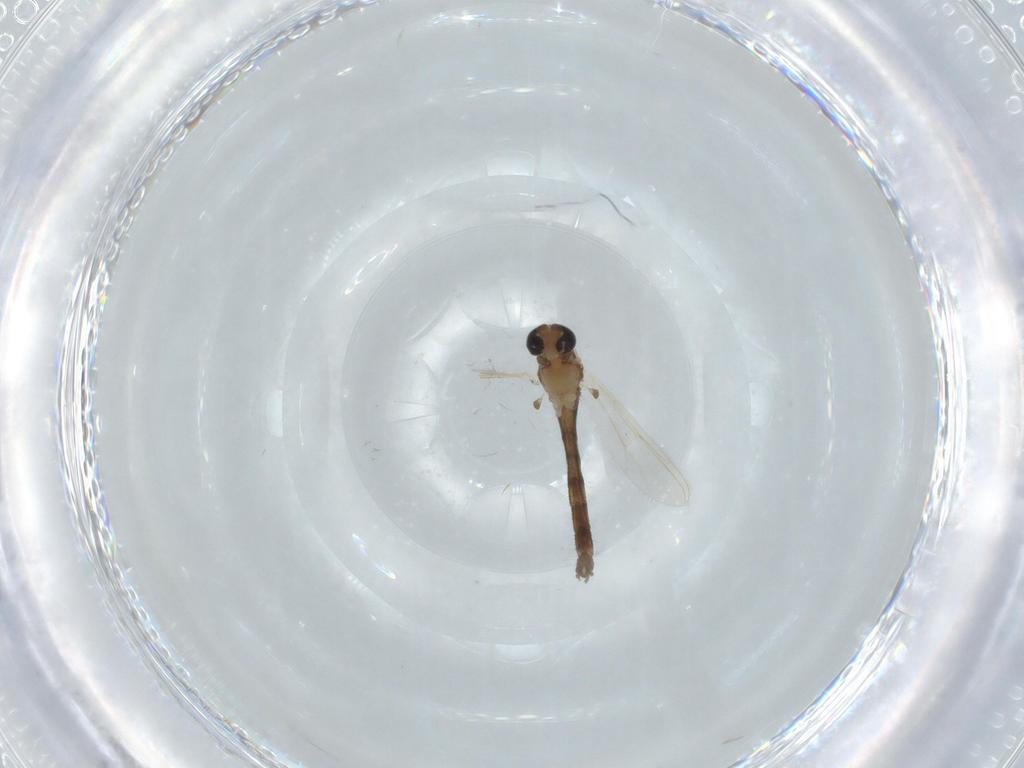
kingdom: Animalia
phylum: Arthropoda
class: Insecta
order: Diptera
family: Chironomidae
